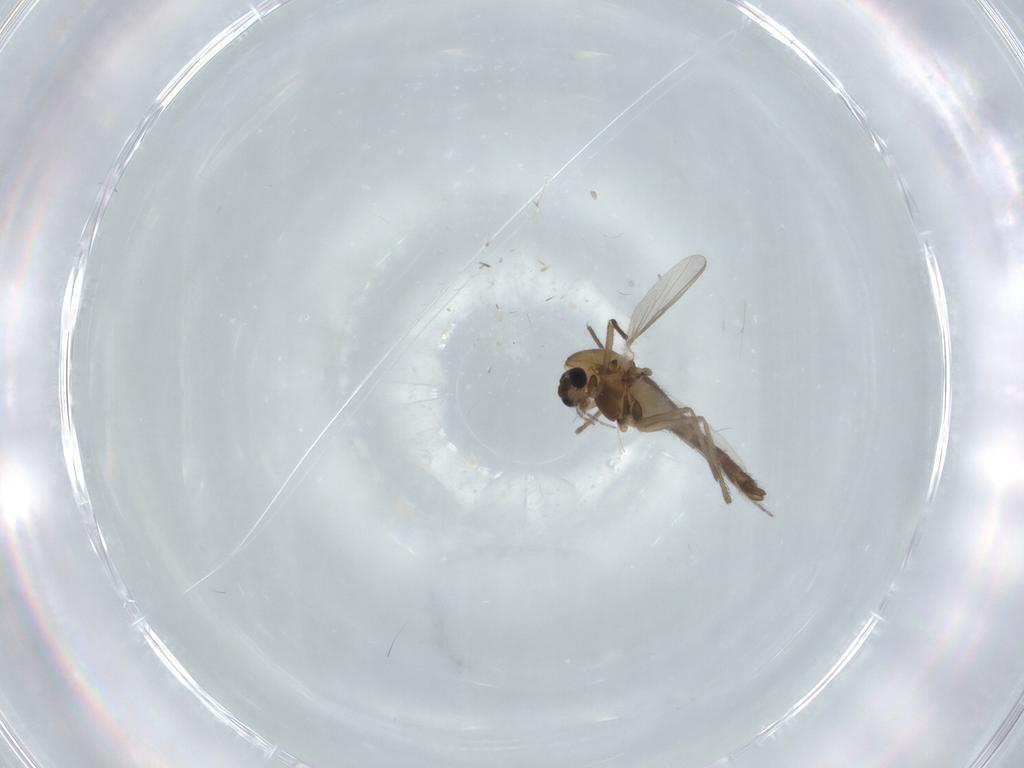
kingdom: Animalia
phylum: Arthropoda
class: Insecta
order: Diptera
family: Chironomidae
